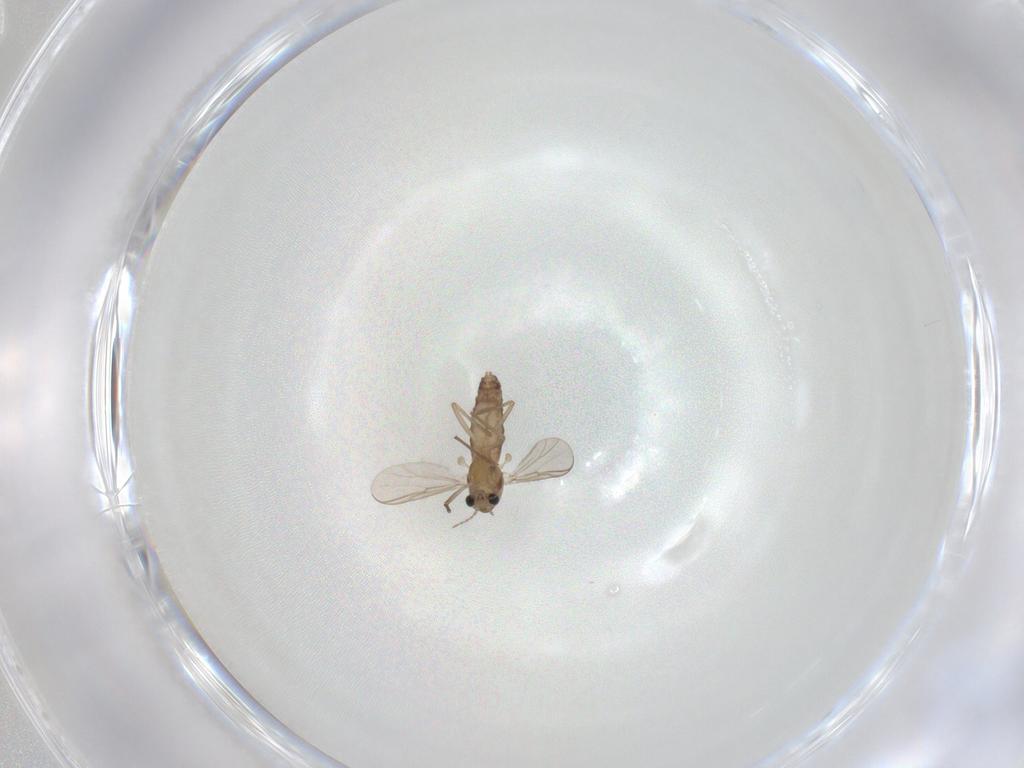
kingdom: Animalia
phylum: Arthropoda
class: Insecta
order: Diptera
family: Chironomidae
